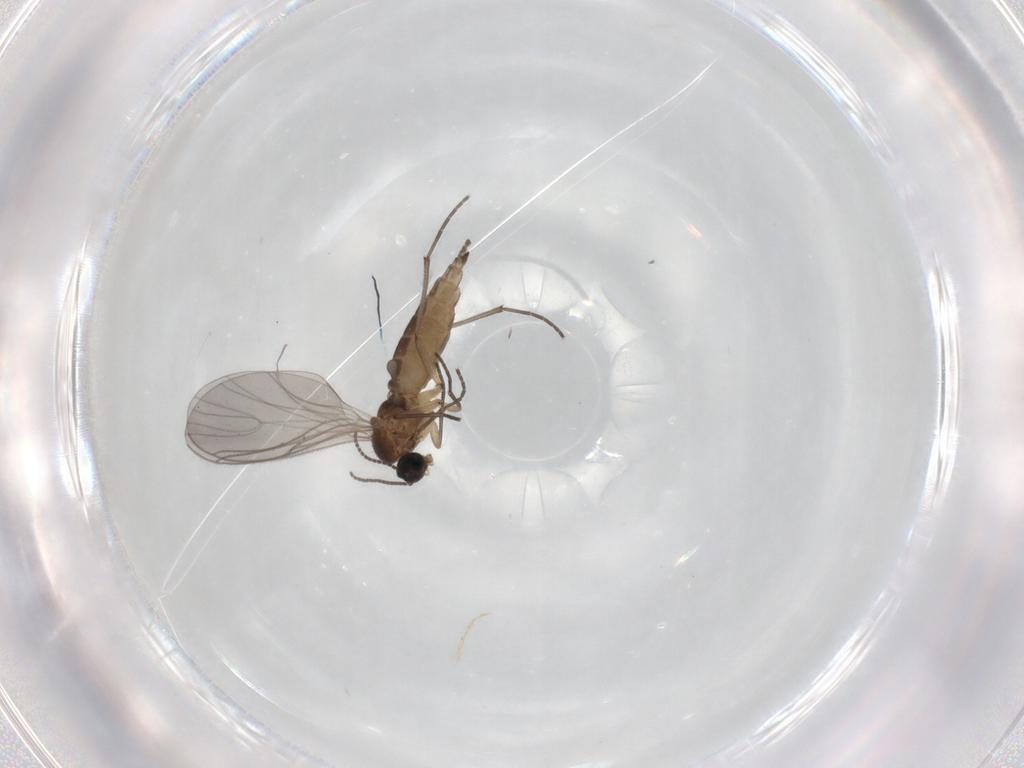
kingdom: Animalia
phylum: Arthropoda
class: Insecta
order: Diptera
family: Sciaridae
